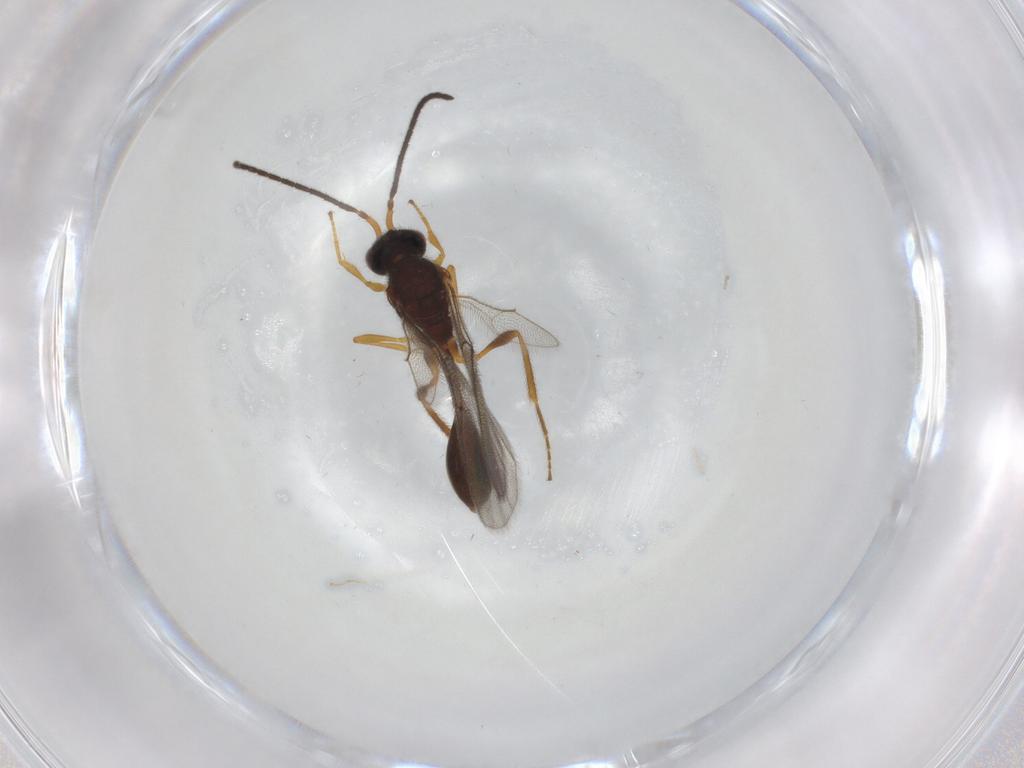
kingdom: Animalia
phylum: Arthropoda
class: Insecta
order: Hymenoptera
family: Diapriidae
